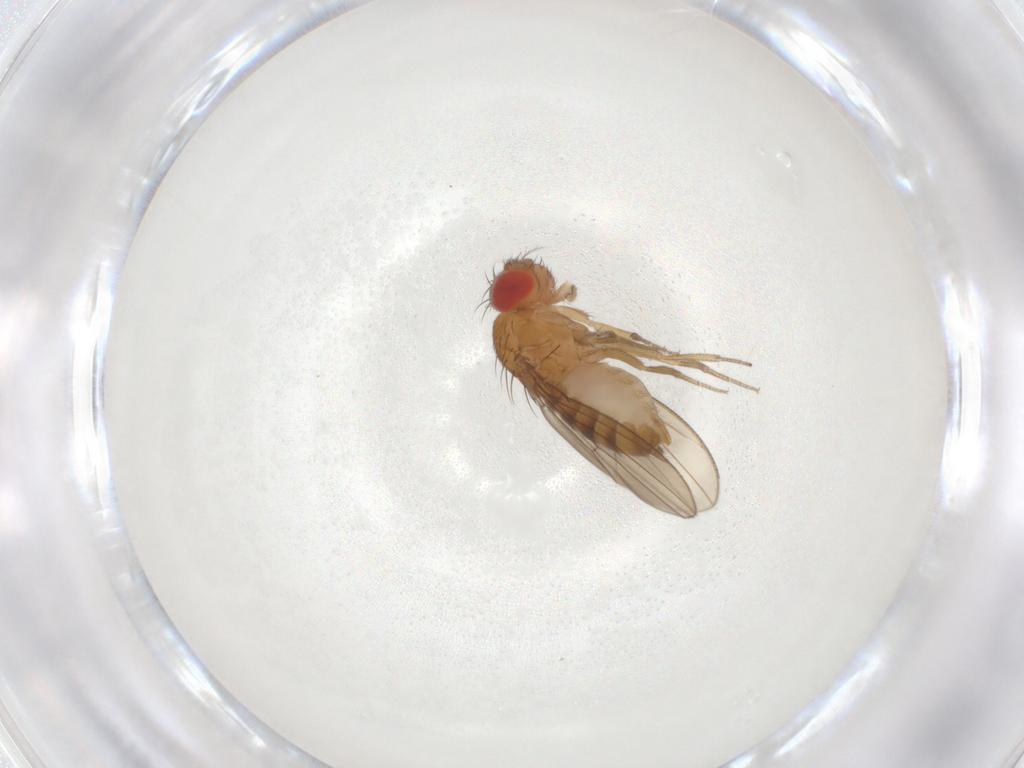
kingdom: Animalia
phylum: Arthropoda
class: Insecta
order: Diptera
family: Drosophilidae
